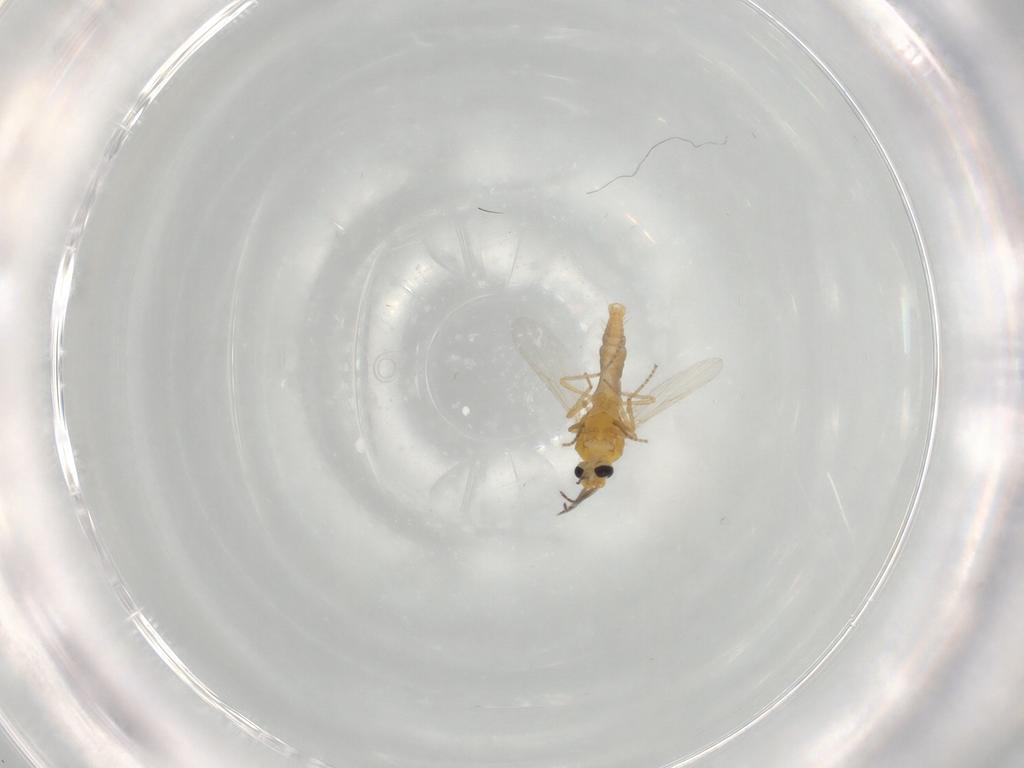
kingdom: Animalia
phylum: Arthropoda
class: Insecta
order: Diptera
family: Ceratopogonidae
